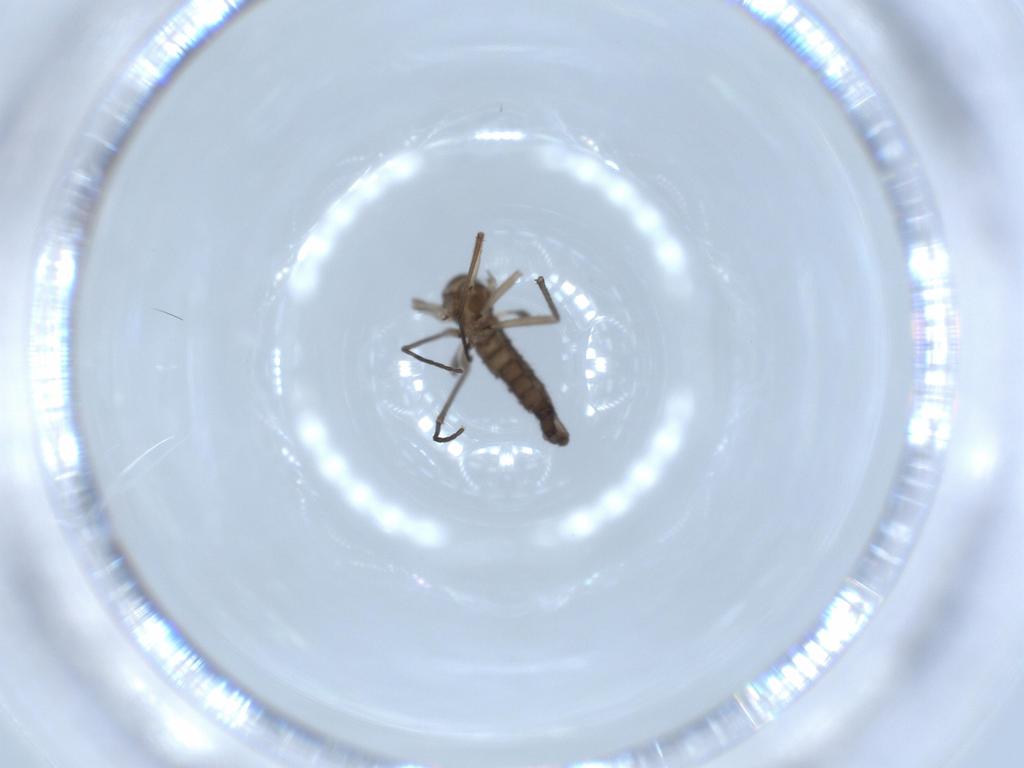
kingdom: Animalia
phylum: Arthropoda
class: Insecta
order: Diptera
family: Sciaridae
